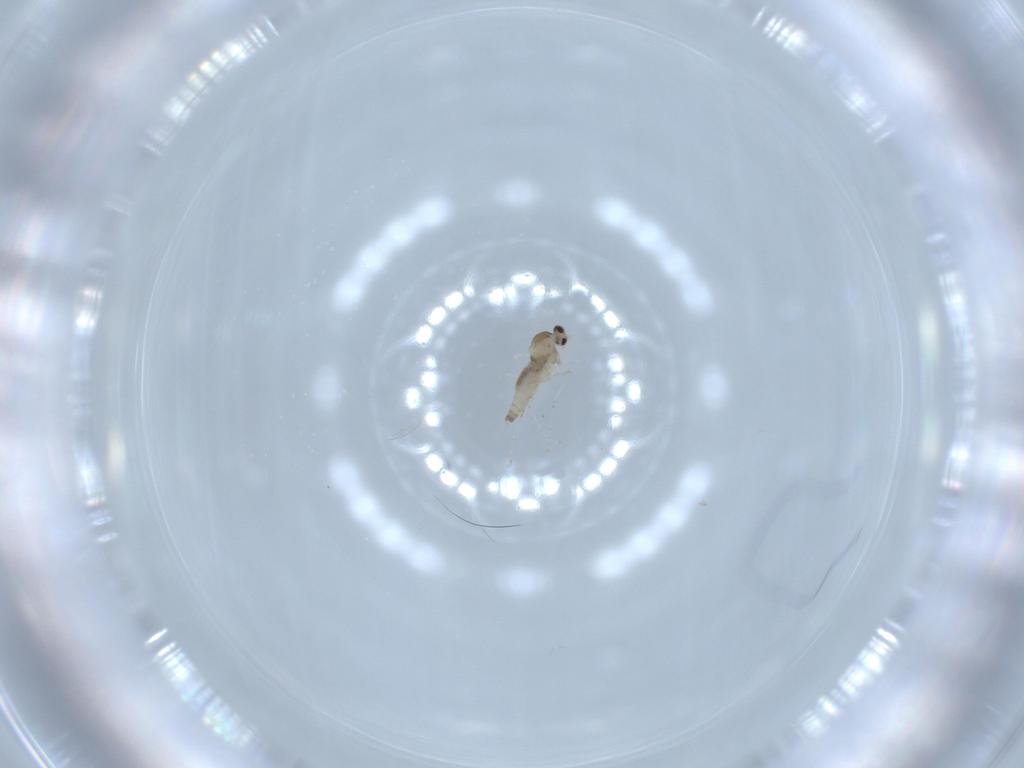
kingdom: Animalia
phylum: Arthropoda
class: Insecta
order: Diptera
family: Cecidomyiidae
